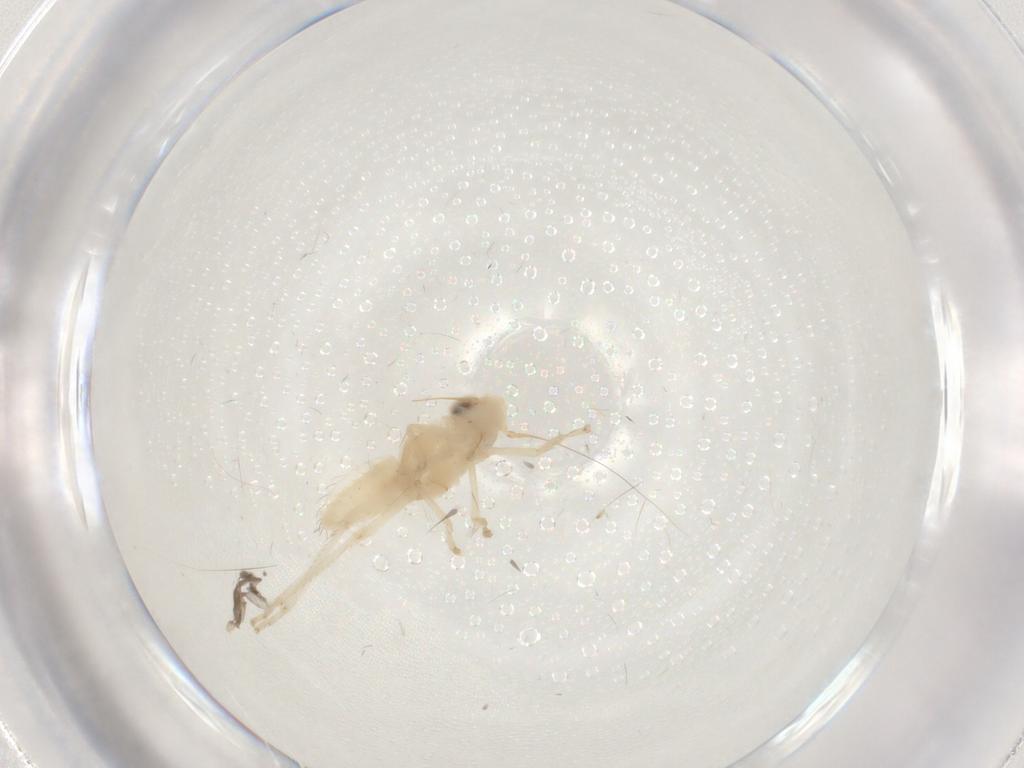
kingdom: Animalia
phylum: Arthropoda
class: Insecta
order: Hemiptera
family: Cicadellidae
